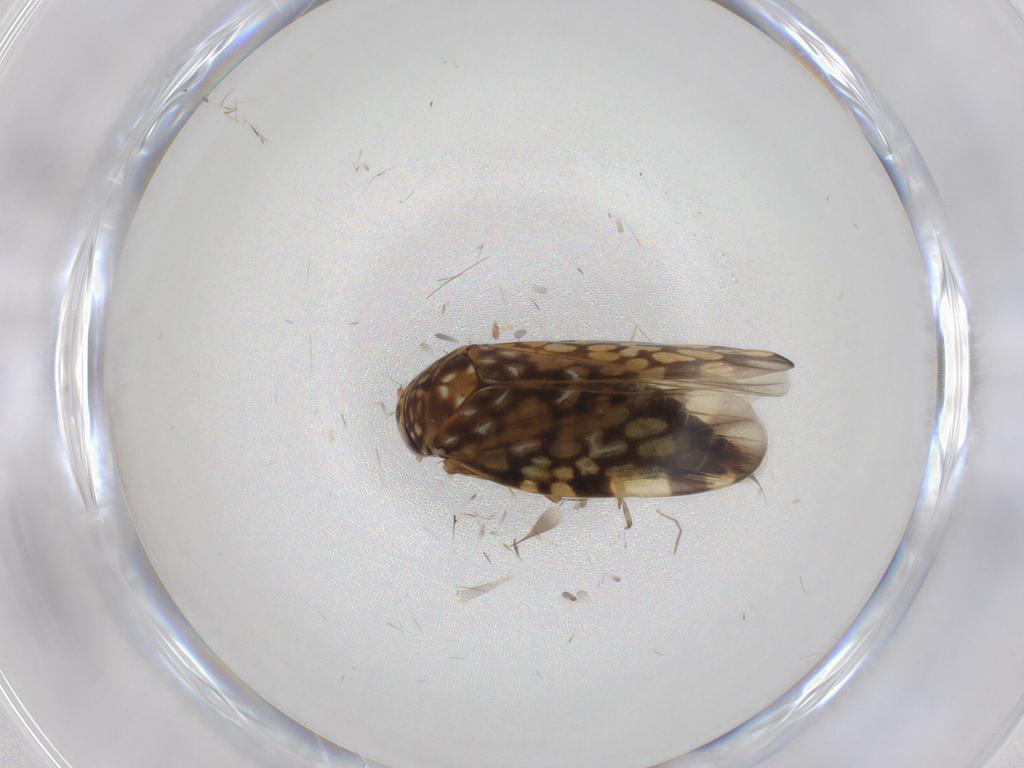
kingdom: Animalia
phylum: Arthropoda
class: Insecta
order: Hemiptera
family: Cicadellidae
